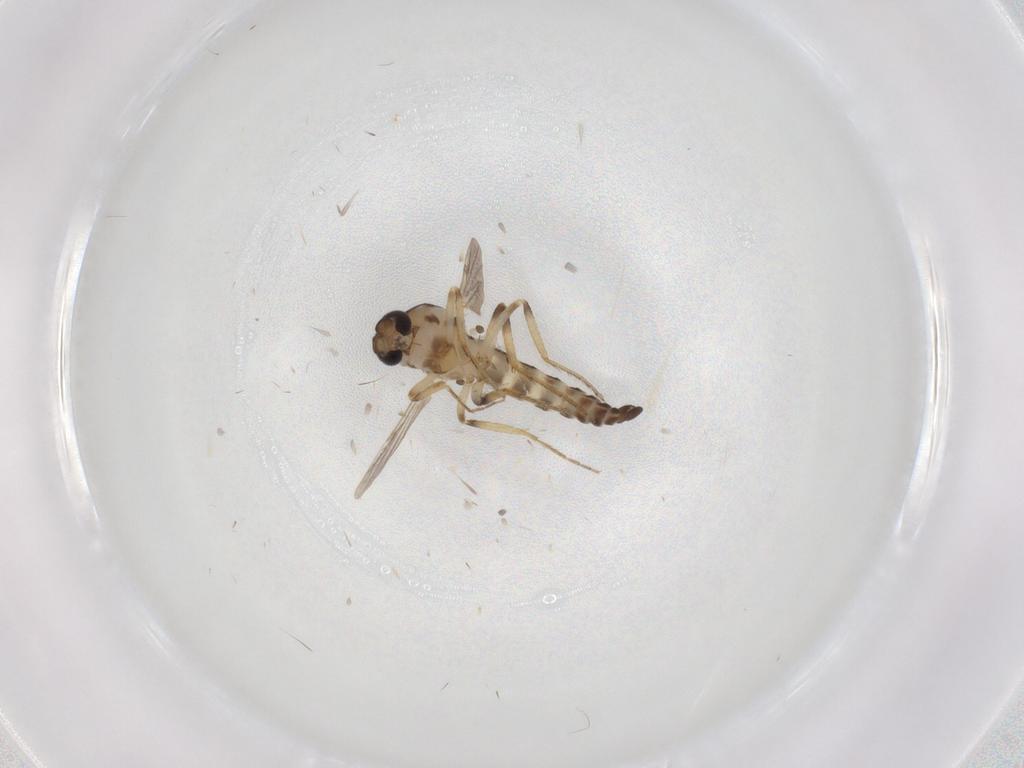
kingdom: Animalia
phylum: Arthropoda
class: Insecta
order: Diptera
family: Ceratopogonidae
